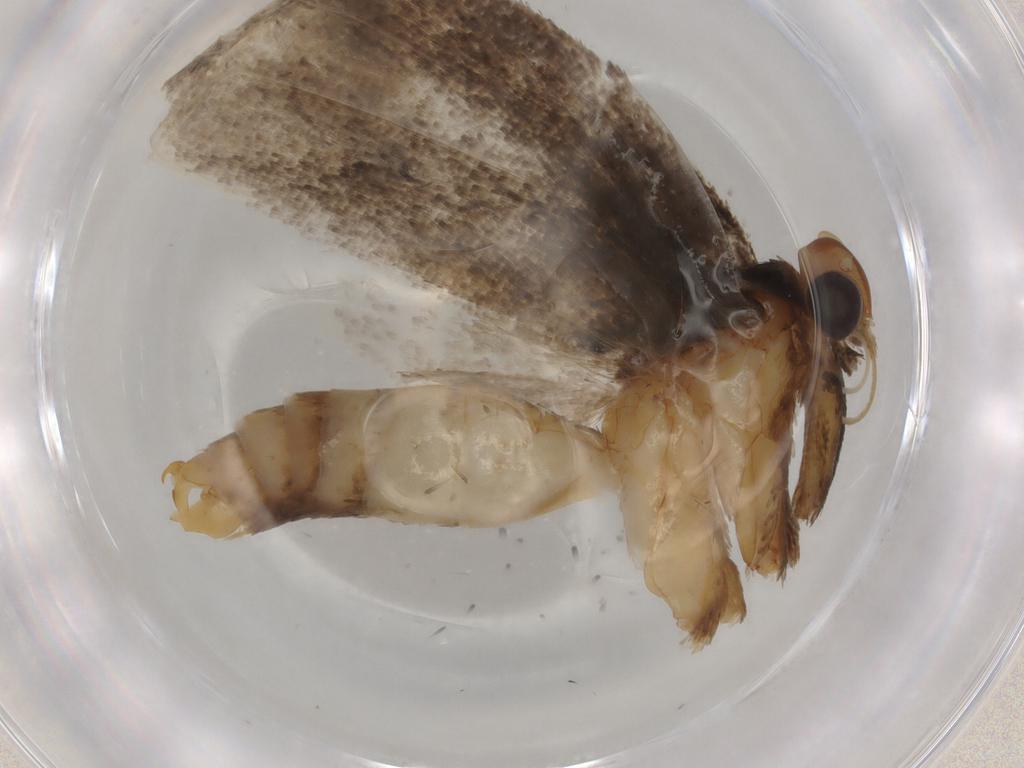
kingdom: Animalia
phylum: Arthropoda
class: Insecta
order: Lepidoptera
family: Oecophoridae
